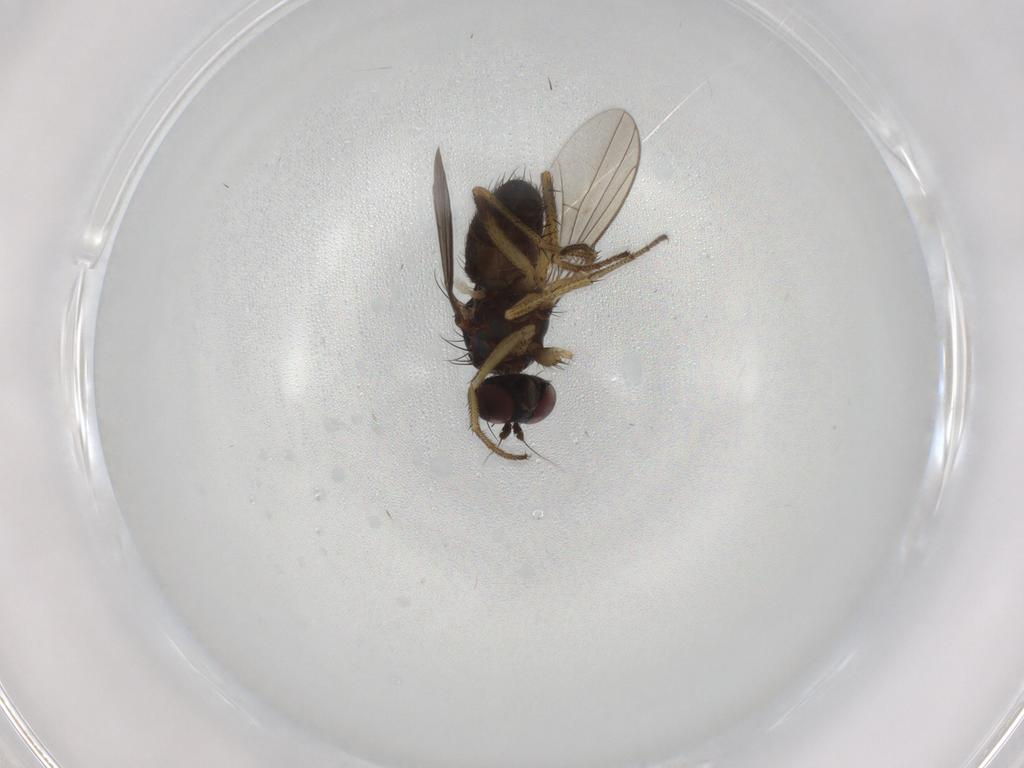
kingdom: Animalia
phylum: Arthropoda
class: Insecta
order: Diptera
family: Dolichopodidae
